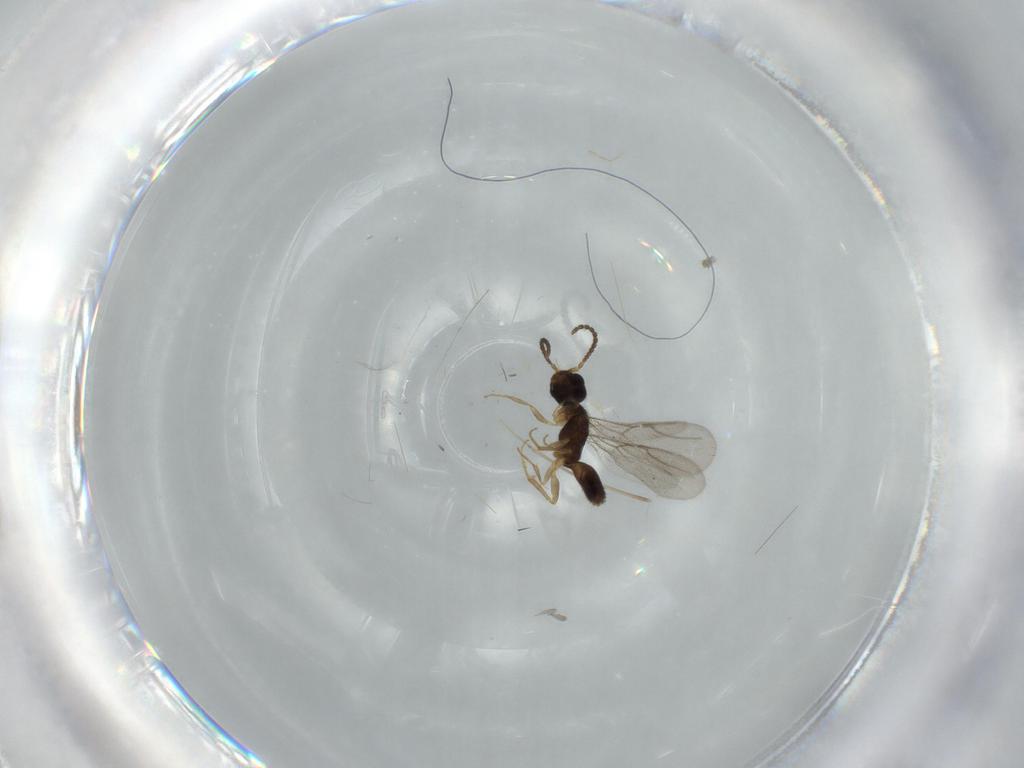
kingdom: Animalia
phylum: Arthropoda
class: Insecta
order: Hymenoptera
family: Bethylidae
